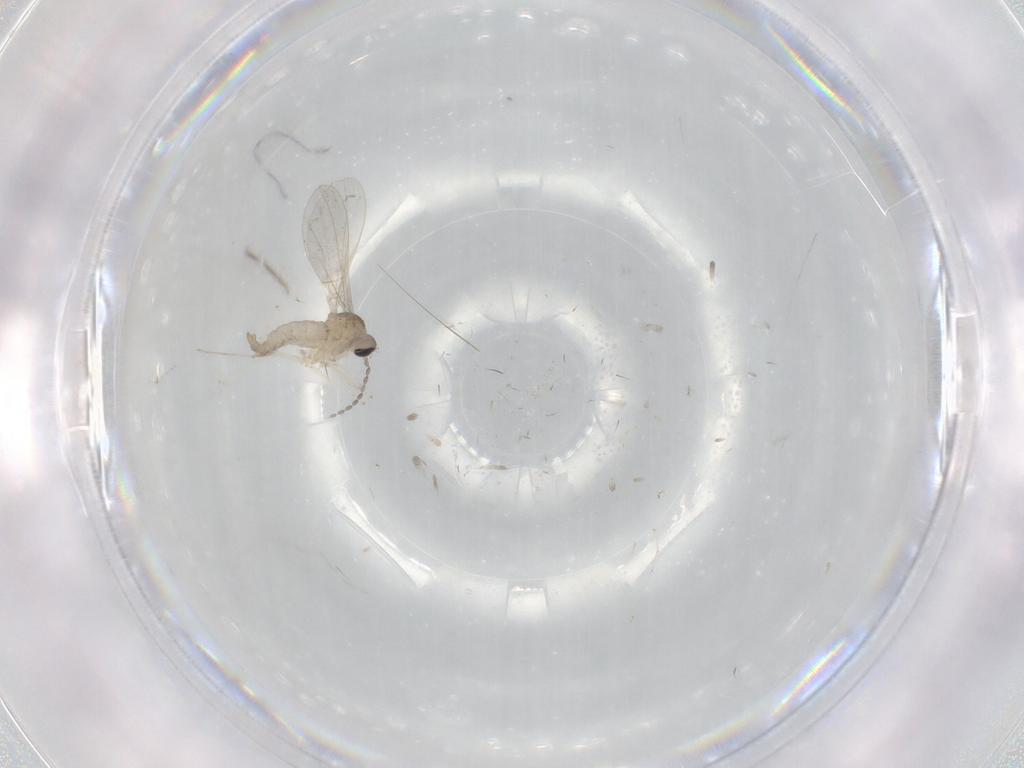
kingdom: Animalia
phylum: Arthropoda
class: Insecta
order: Diptera
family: Cecidomyiidae
